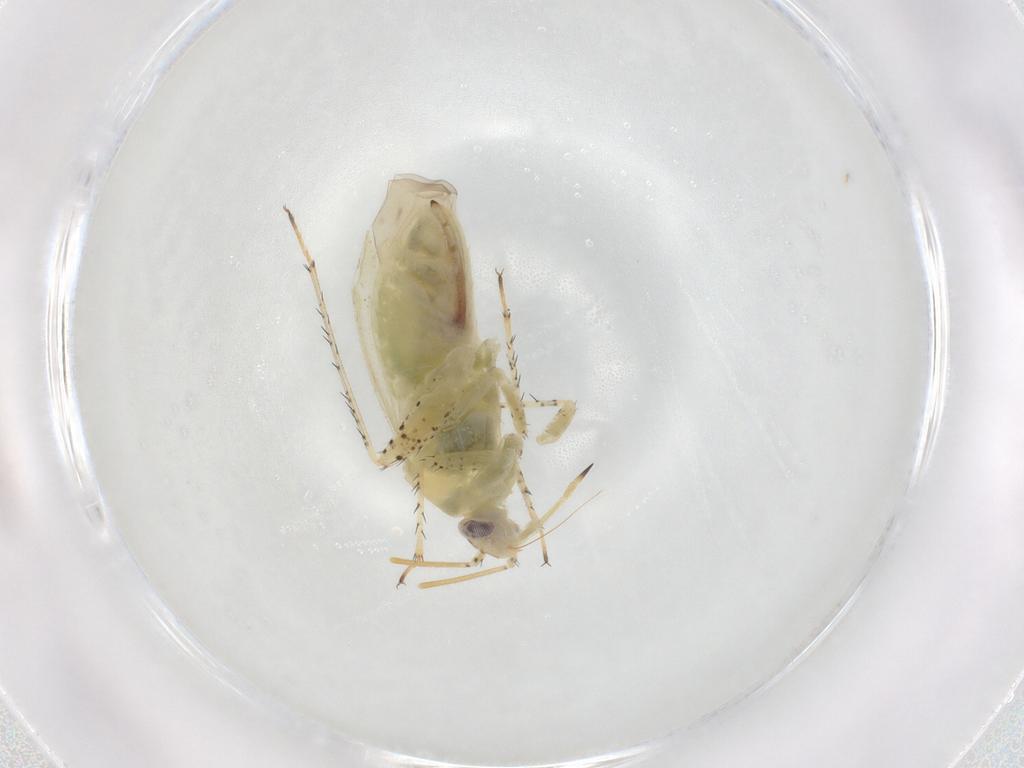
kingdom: Animalia
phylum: Arthropoda
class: Insecta
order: Hemiptera
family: Miridae
